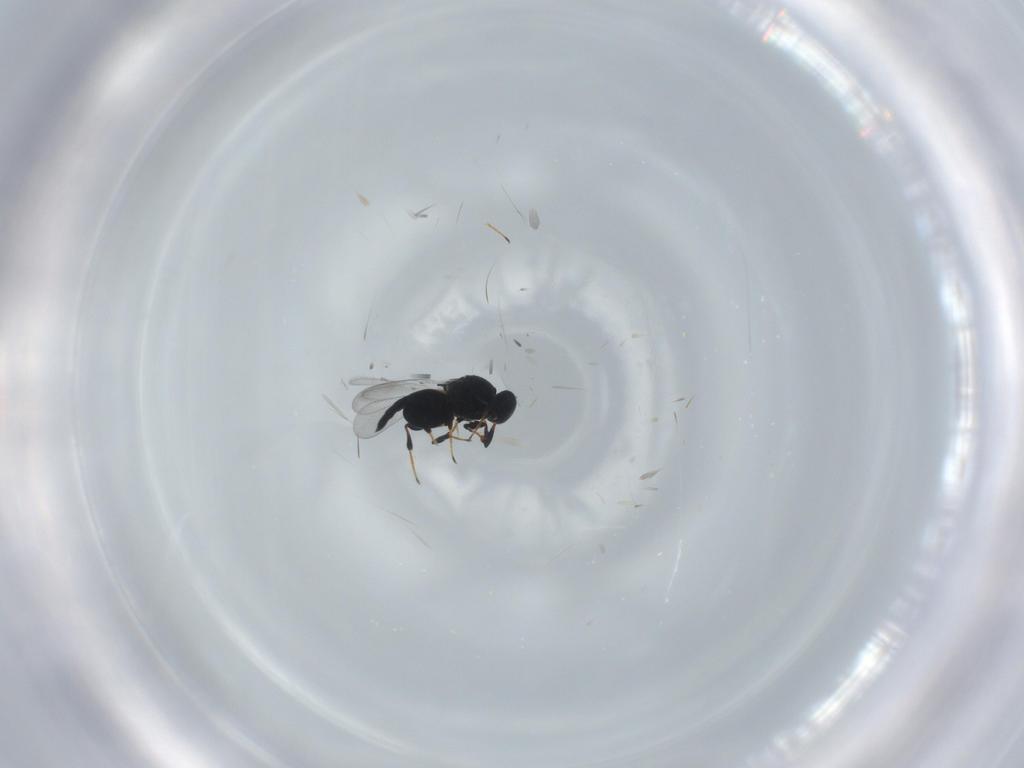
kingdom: Animalia
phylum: Arthropoda
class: Insecta
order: Hymenoptera
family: Platygastridae
